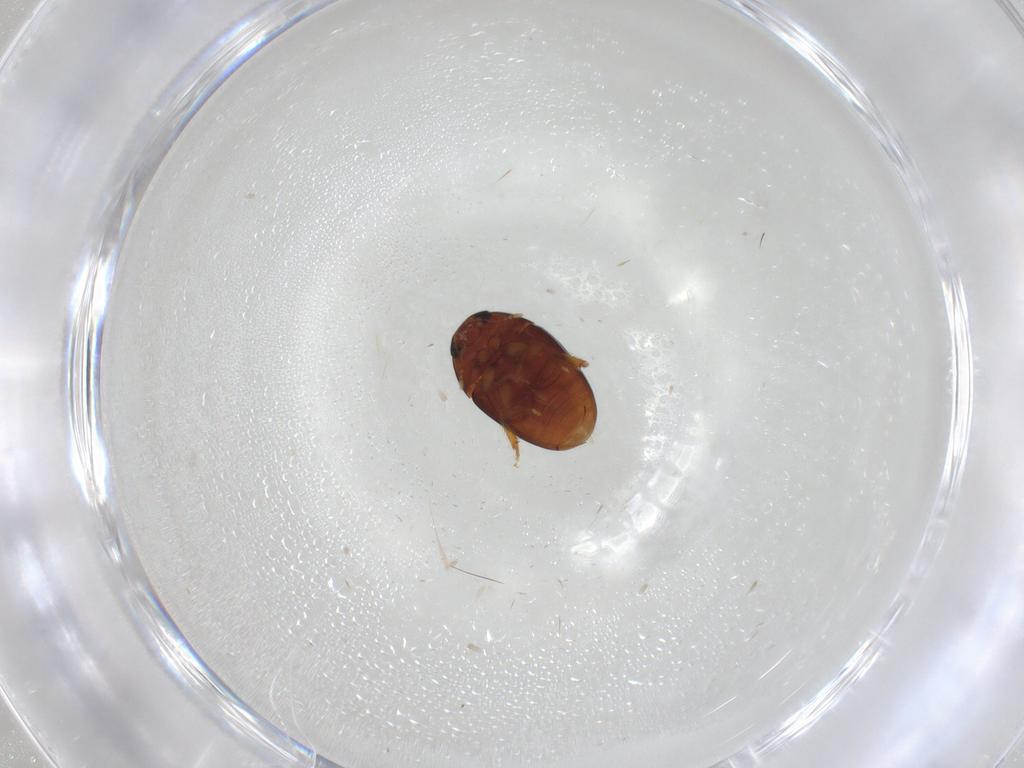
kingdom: Animalia
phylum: Arthropoda
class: Insecta
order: Coleoptera
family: Phalacridae
